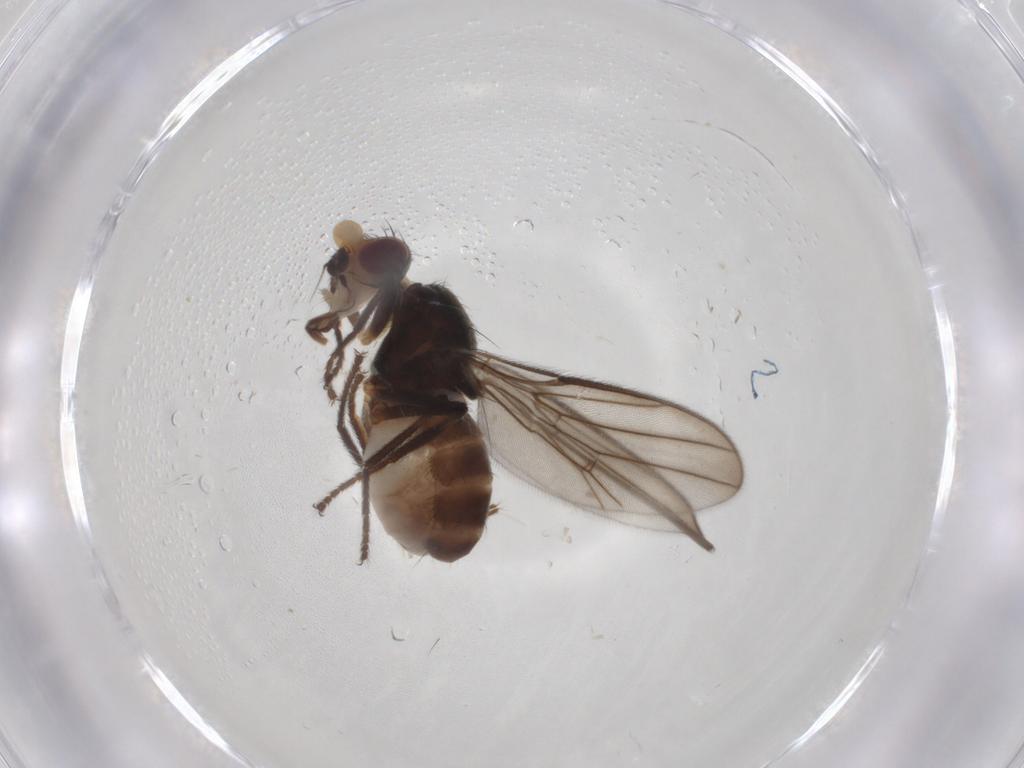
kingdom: Animalia
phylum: Arthropoda
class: Insecta
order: Diptera
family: Chloropidae
